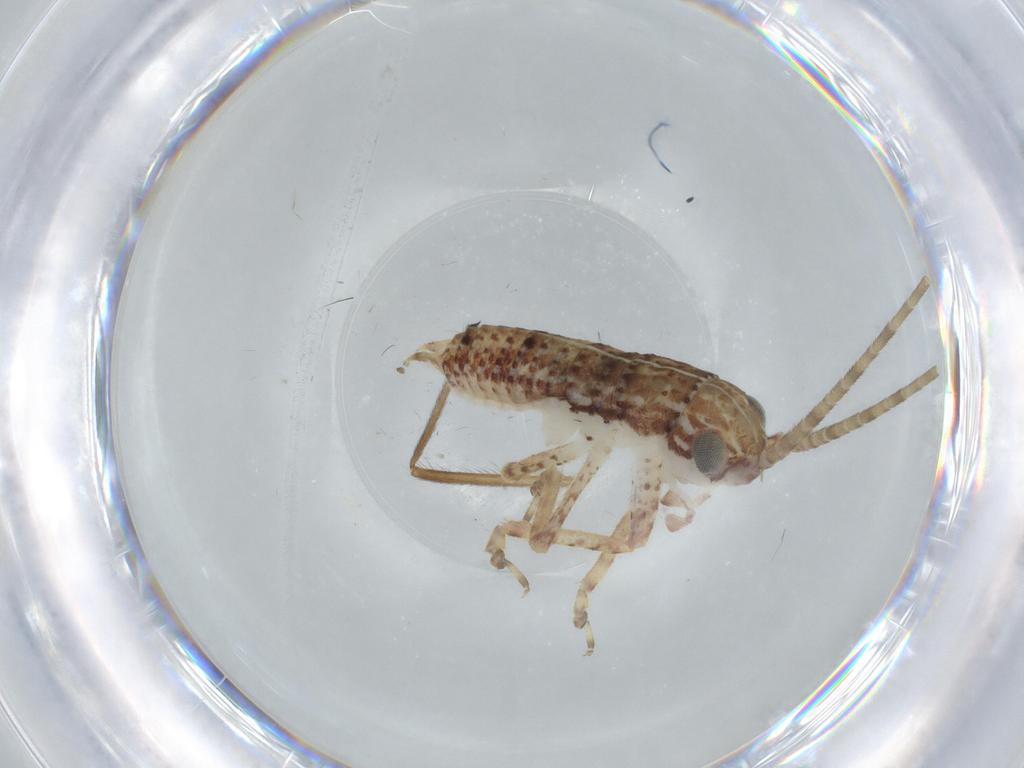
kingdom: Animalia
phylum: Arthropoda
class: Insecta
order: Orthoptera
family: Gryllidae
